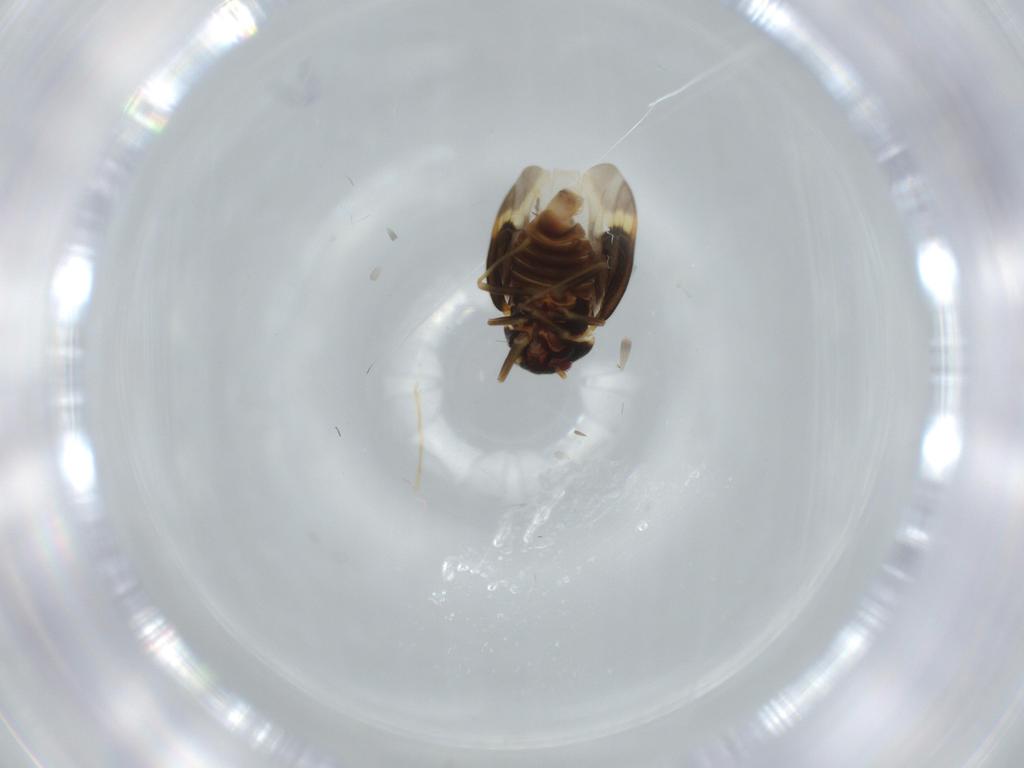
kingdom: Animalia
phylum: Arthropoda
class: Insecta
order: Hemiptera
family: Schizopteridae
